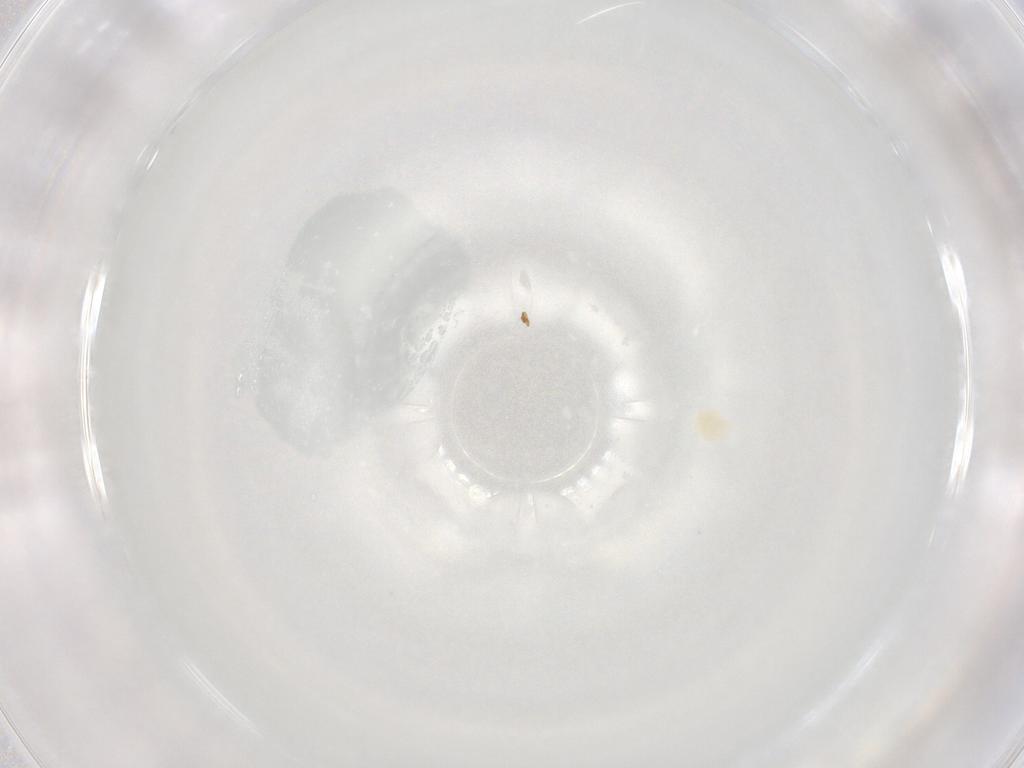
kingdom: Animalia
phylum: Arthropoda
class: Arachnida
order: Trombidiformes
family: Eupodidae
